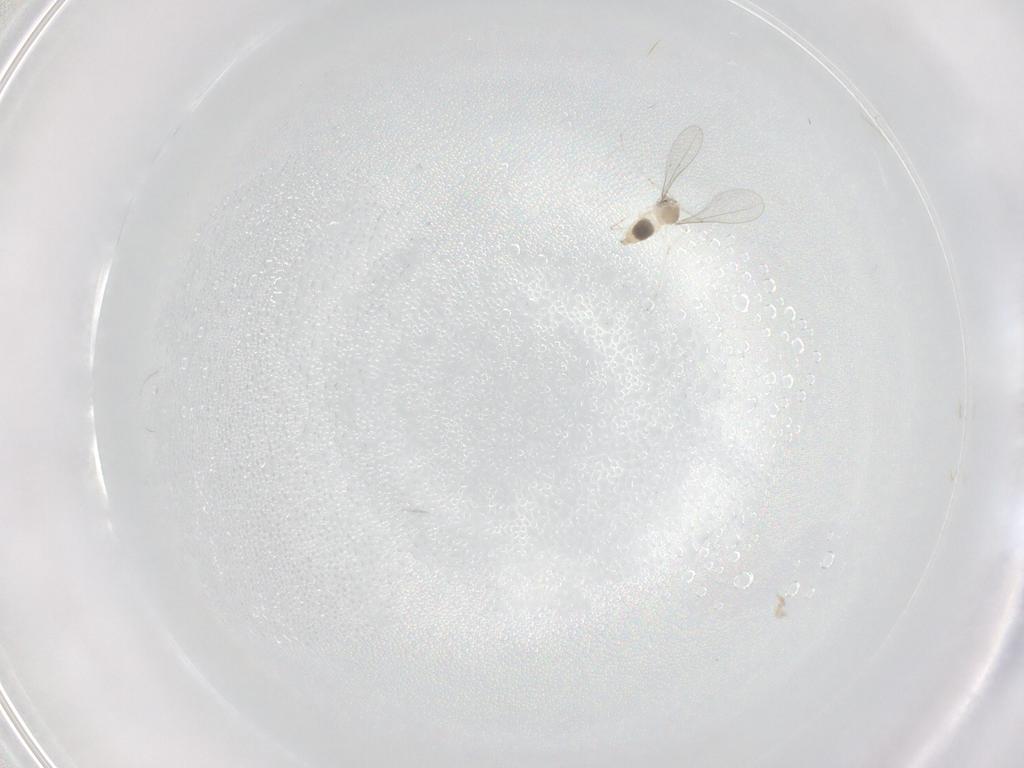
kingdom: Animalia
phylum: Arthropoda
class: Insecta
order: Diptera
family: Cecidomyiidae
